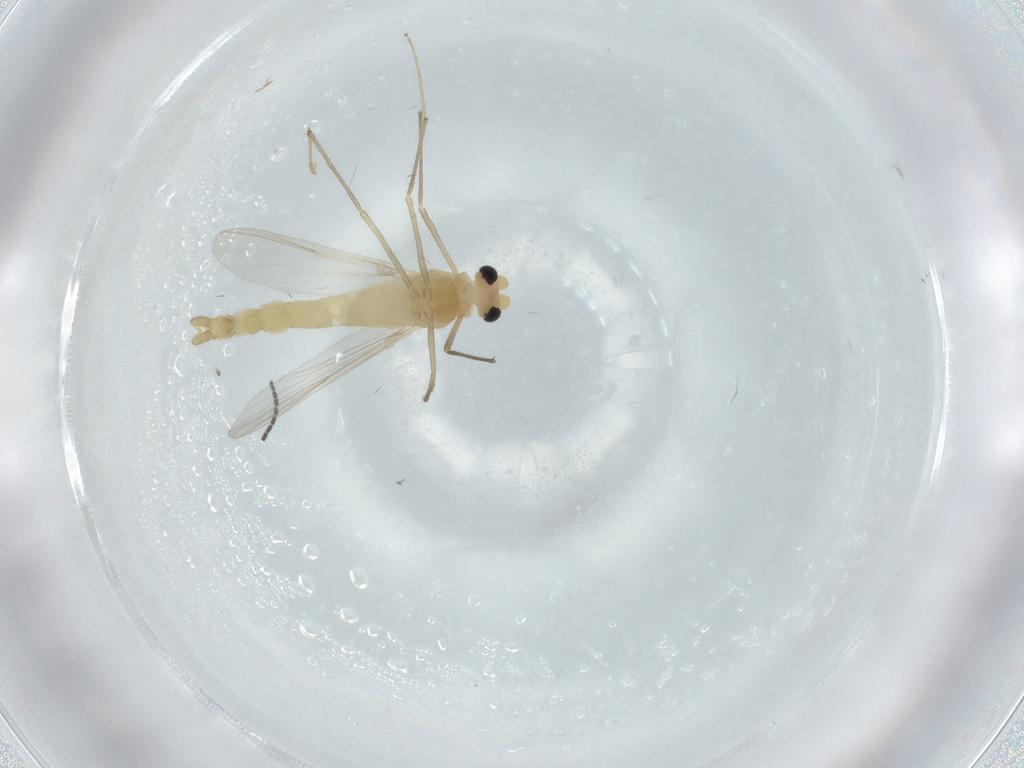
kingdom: Animalia
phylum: Arthropoda
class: Insecta
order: Diptera
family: Chironomidae
